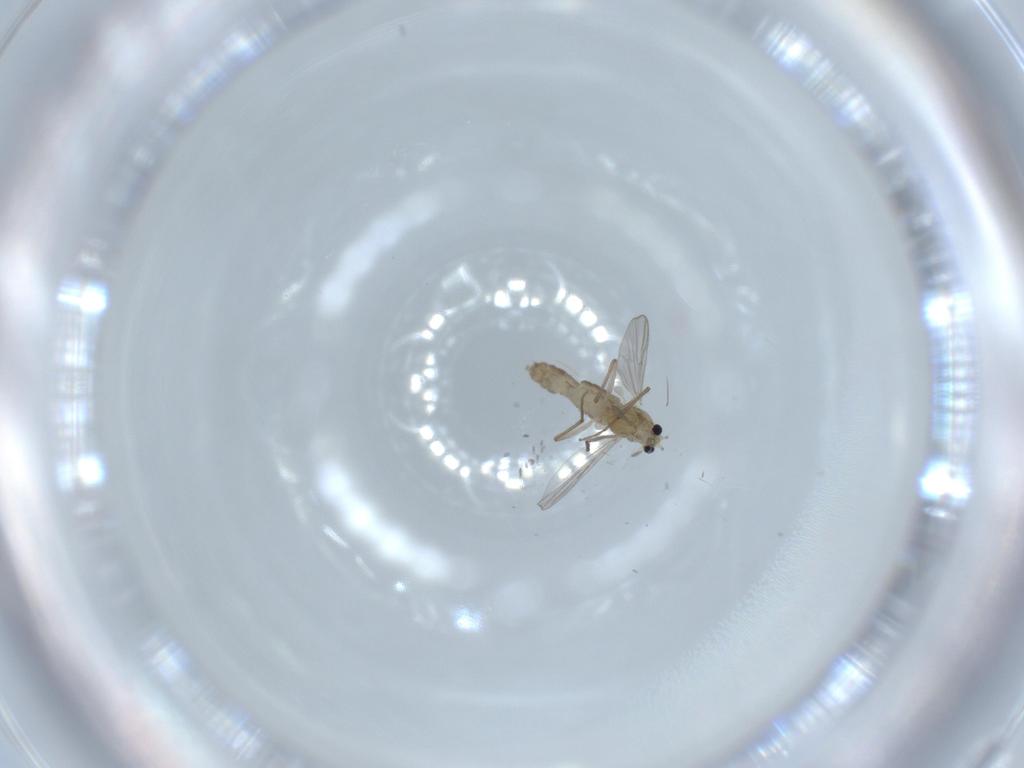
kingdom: Animalia
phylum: Arthropoda
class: Insecta
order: Diptera
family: Chironomidae
